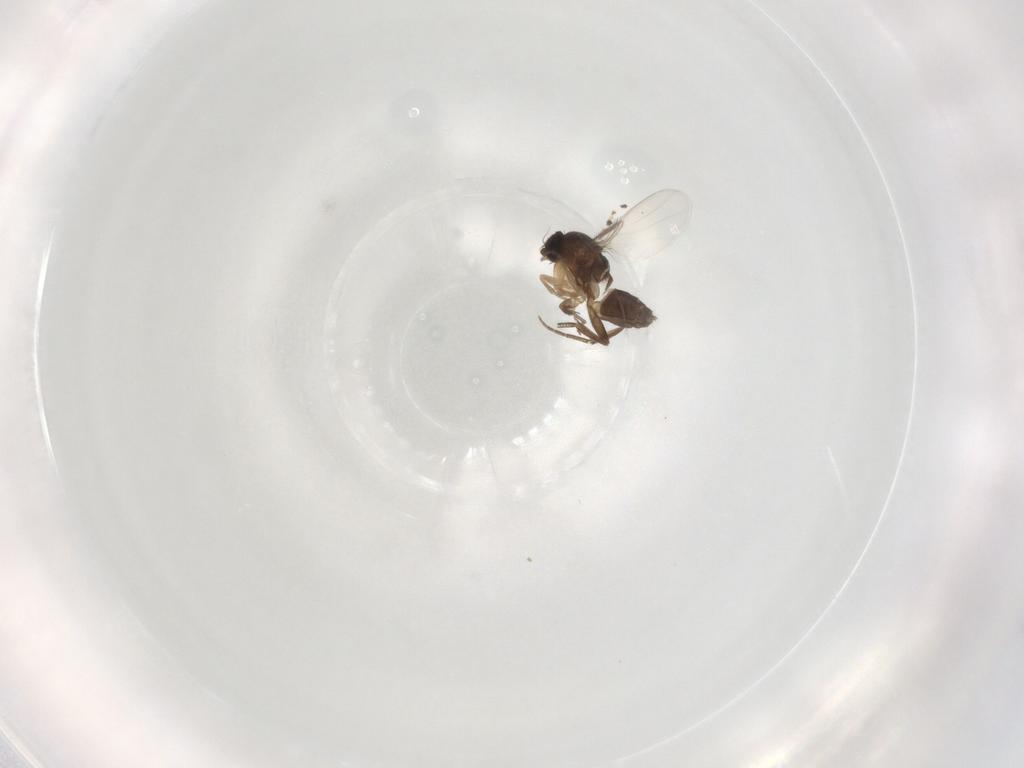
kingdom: Animalia
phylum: Arthropoda
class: Insecta
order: Diptera
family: Phoridae
